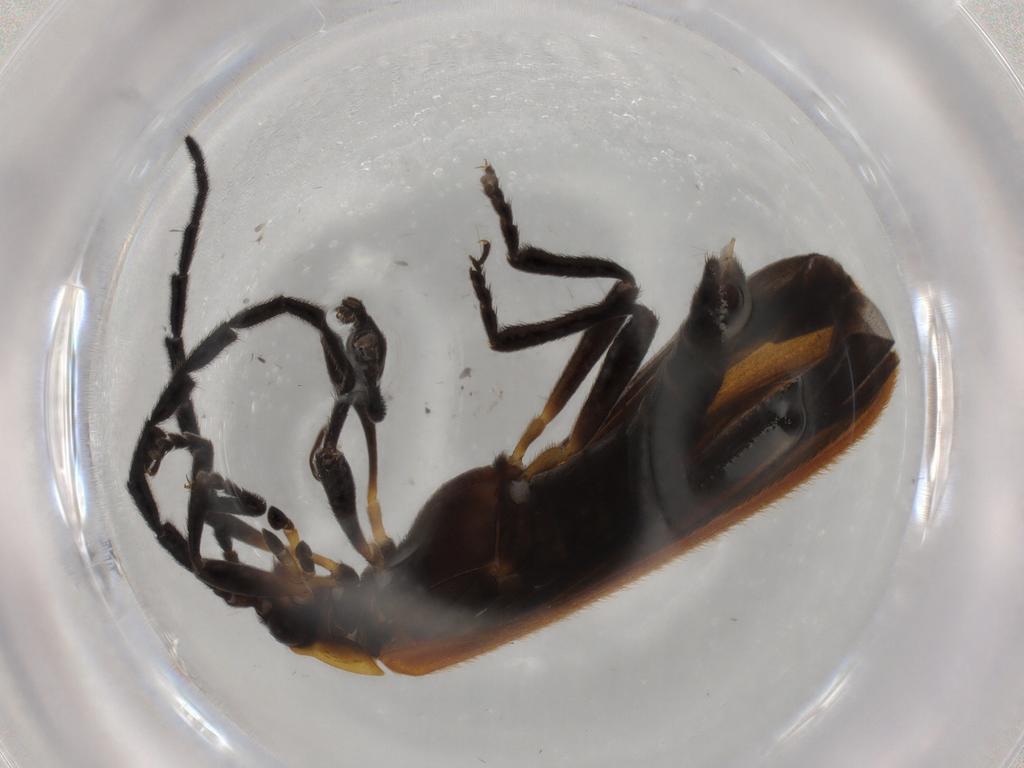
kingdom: Animalia
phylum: Arthropoda
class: Insecta
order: Coleoptera
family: Lycidae
